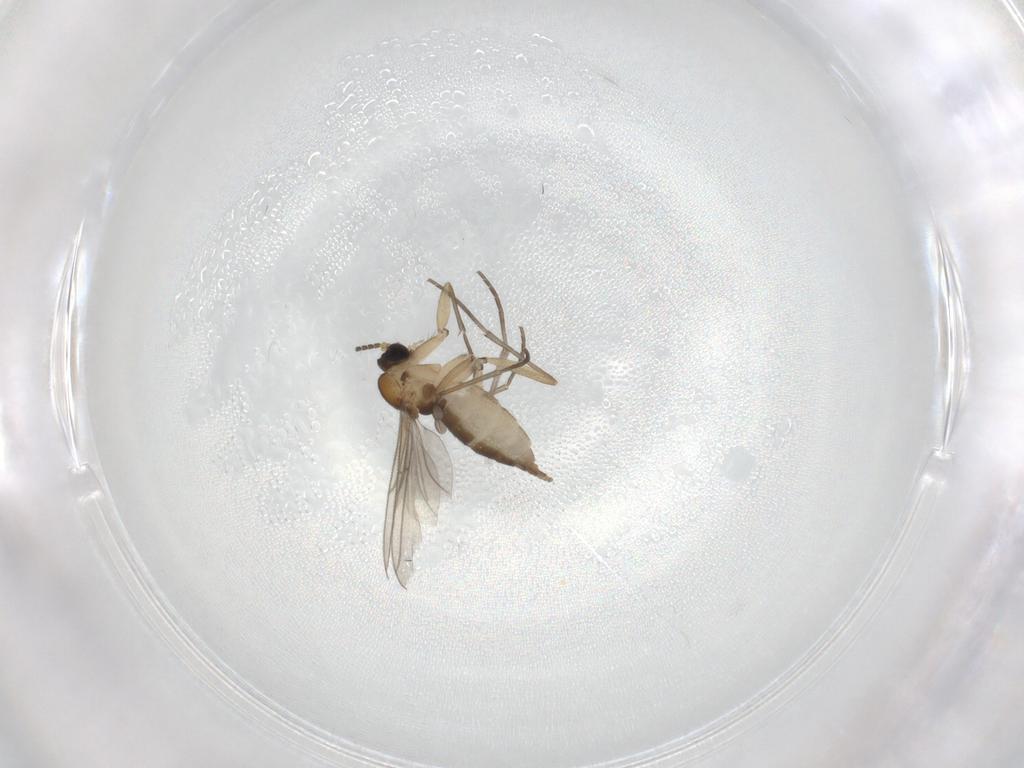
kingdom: Animalia
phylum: Arthropoda
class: Insecta
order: Diptera
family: Sciaridae
